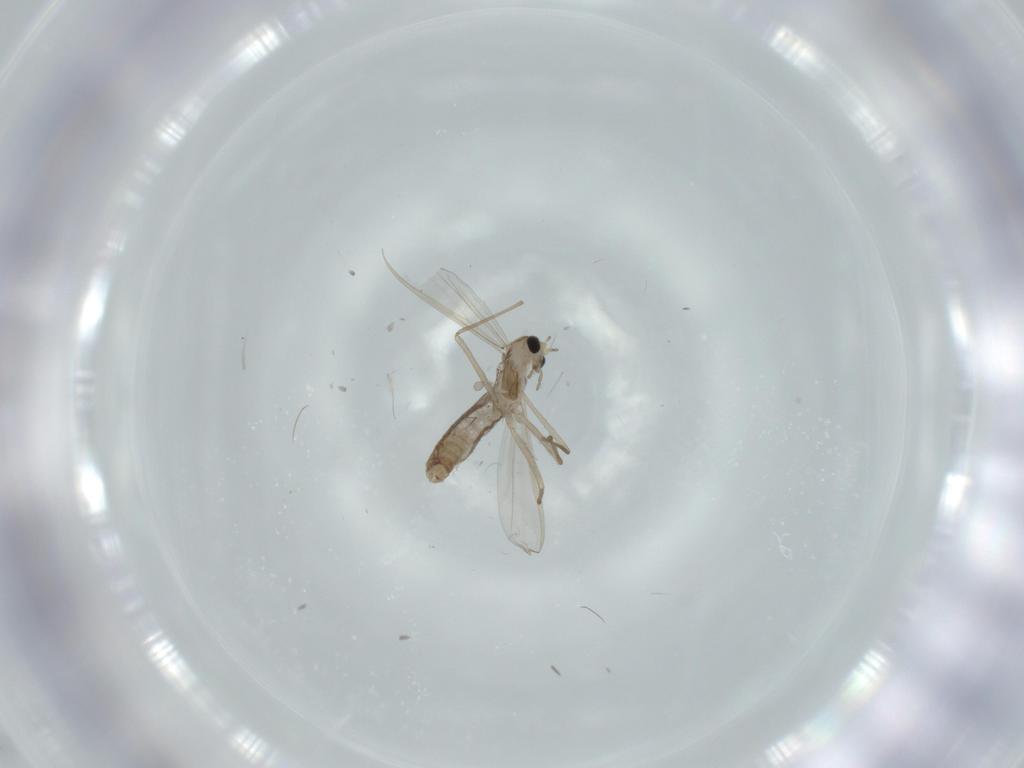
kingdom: Animalia
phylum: Arthropoda
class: Insecta
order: Diptera
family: Chironomidae
